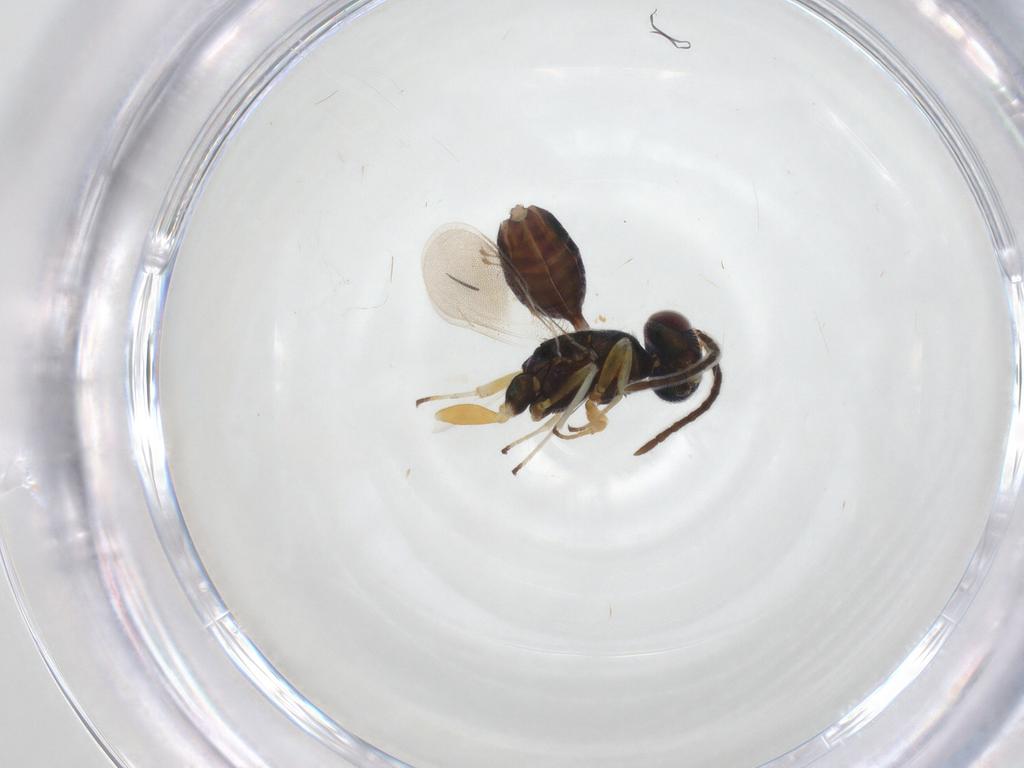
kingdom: Animalia
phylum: Arthropoda
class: Insecta
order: Hymenoptera
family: Eupelmidae
